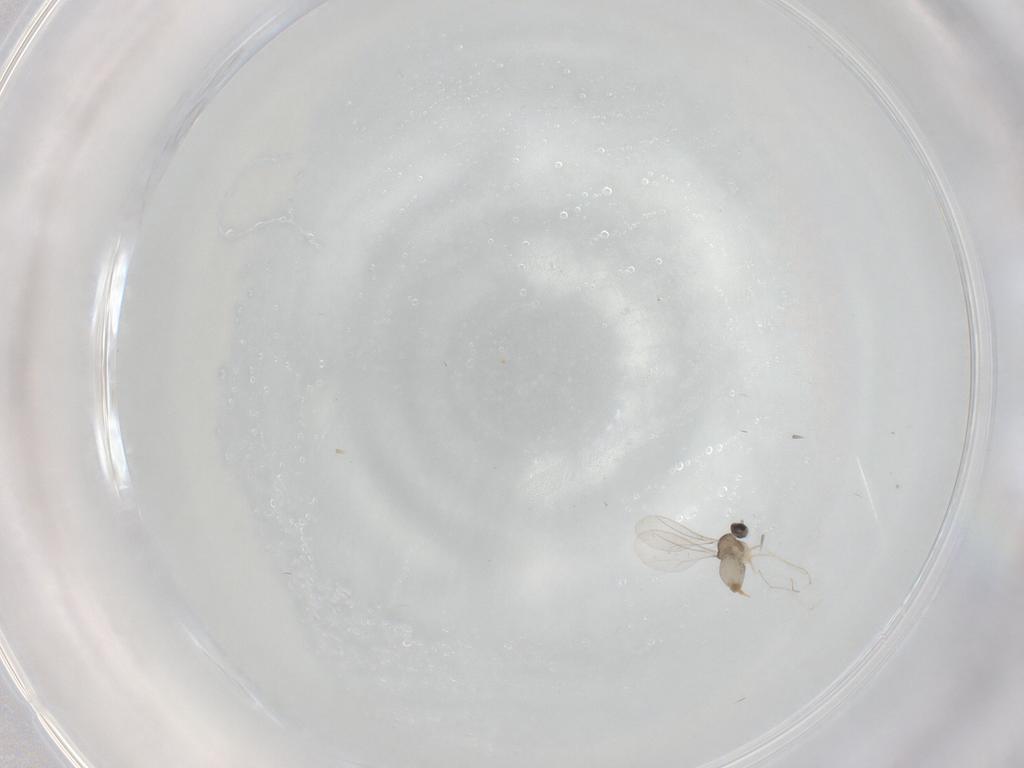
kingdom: Animalia
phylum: Arthropoda
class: Insecta
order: Diptera
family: Cecidomyiidae
